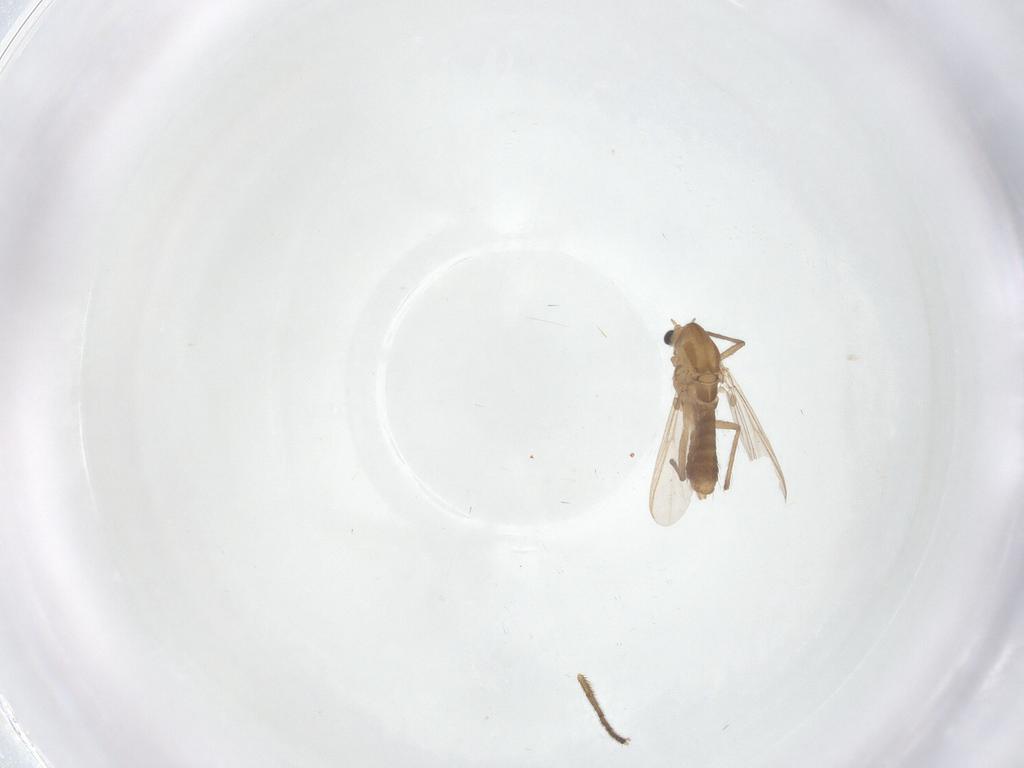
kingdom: Animalia
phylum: Arthropoda
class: Insecta
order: Diptera
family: Chironomidae
